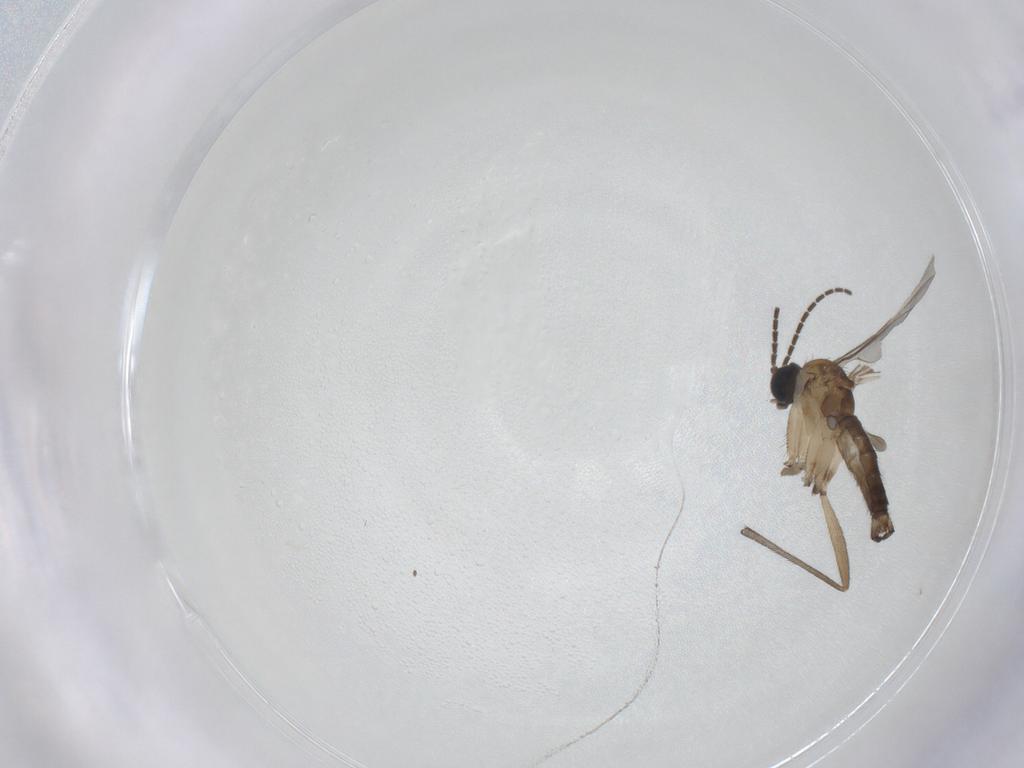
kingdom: Animalia
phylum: Arthropoda
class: Insecta
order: Diptera
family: Sciaridae
